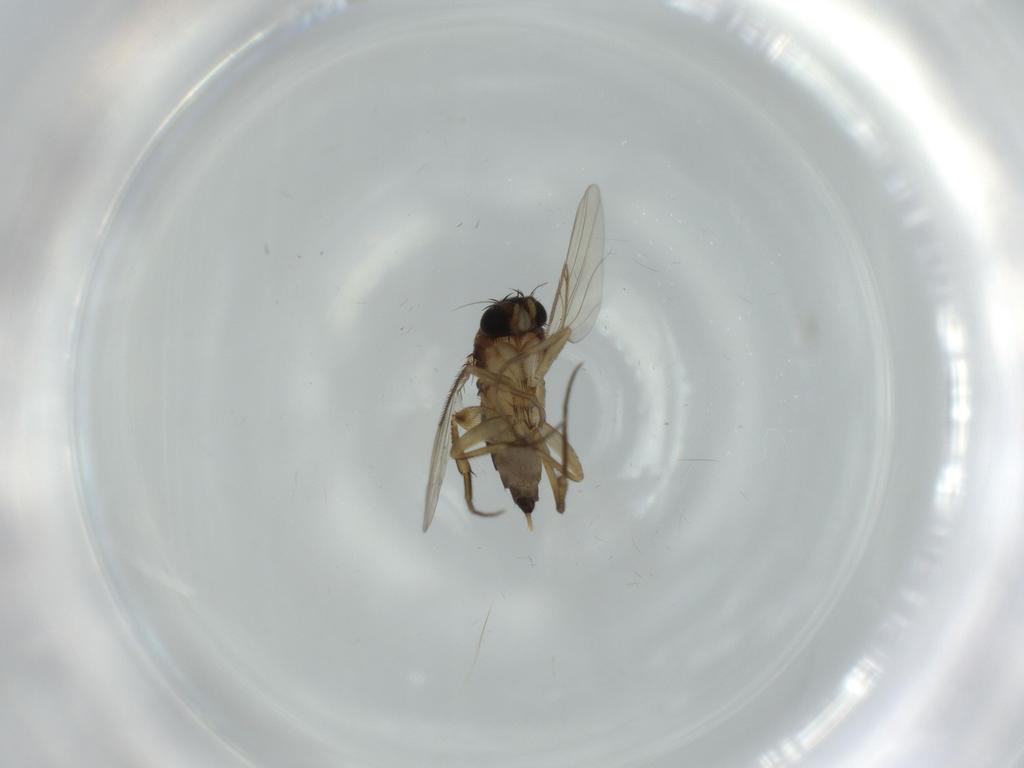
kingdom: Animalia
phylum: Arthropoda
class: Insecta
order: Diptera
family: Phoridae
